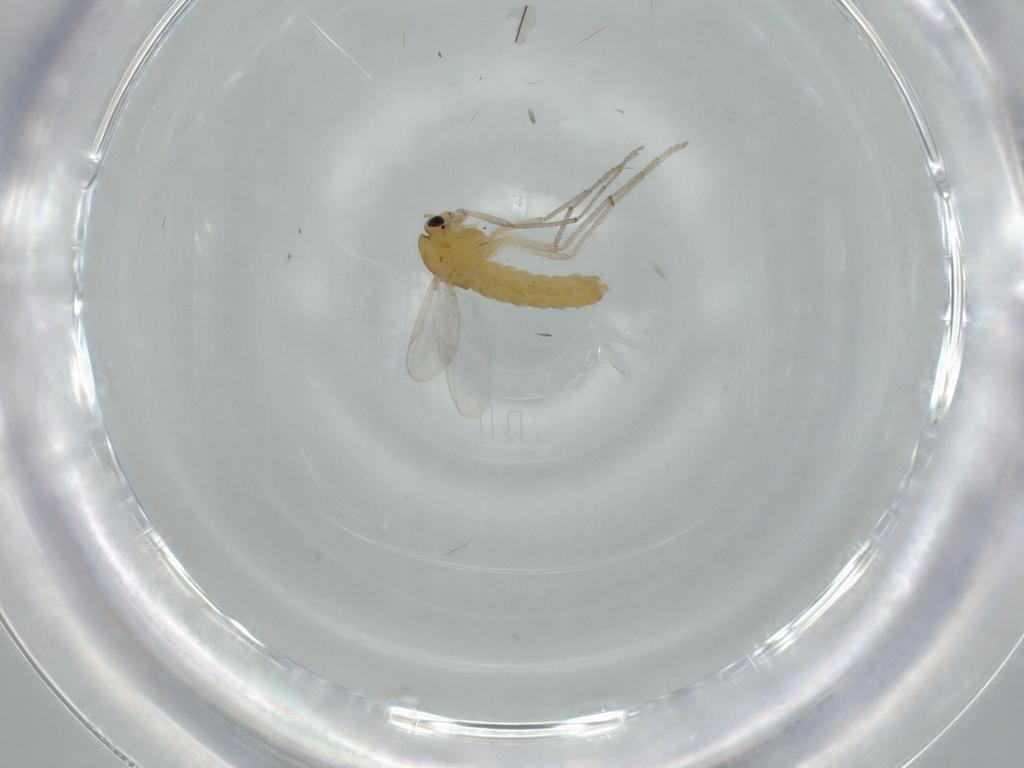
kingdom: Animalia
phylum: Arthropoda
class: Insecta
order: Diptera
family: Chironomidae
